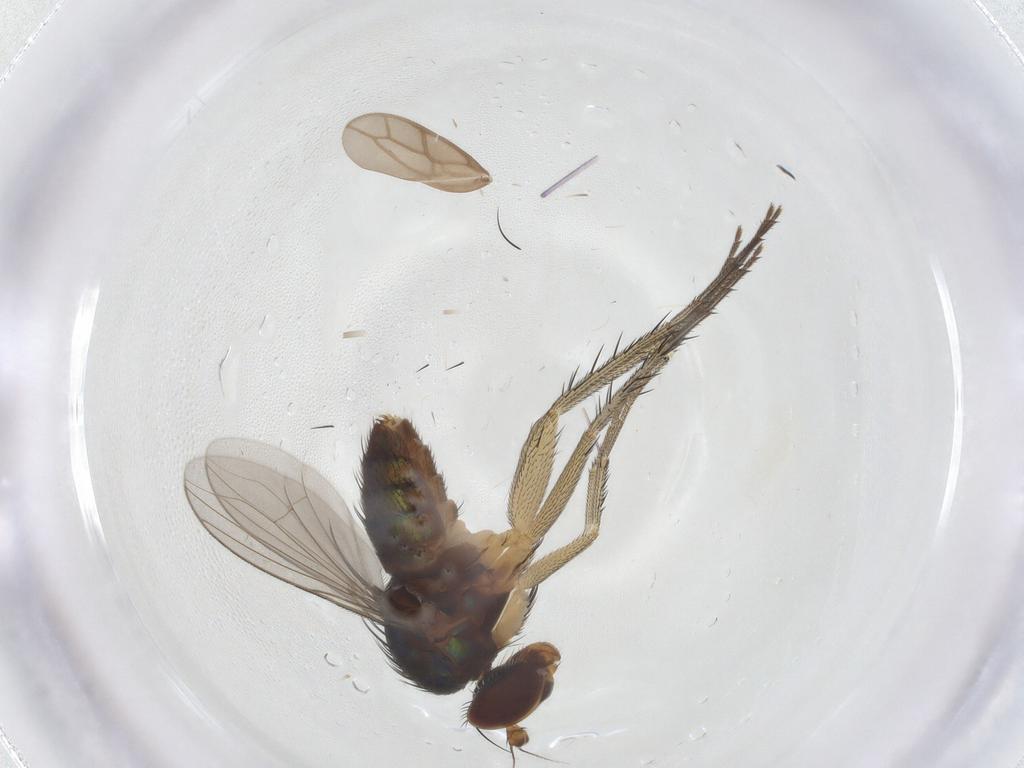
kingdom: Animalia
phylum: Arthropoda
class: Insecta
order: Diptera
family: Dolichopodidae
